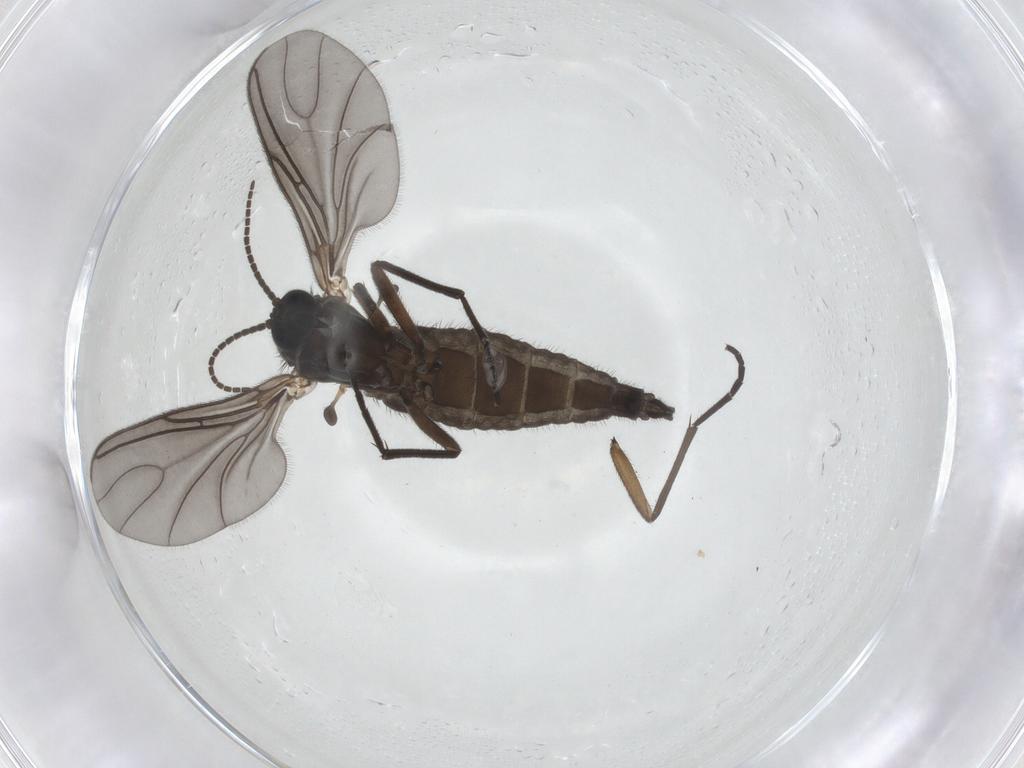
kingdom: Animalia
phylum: Arthropoda
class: Insecta
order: Diptera
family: Sciaridae
